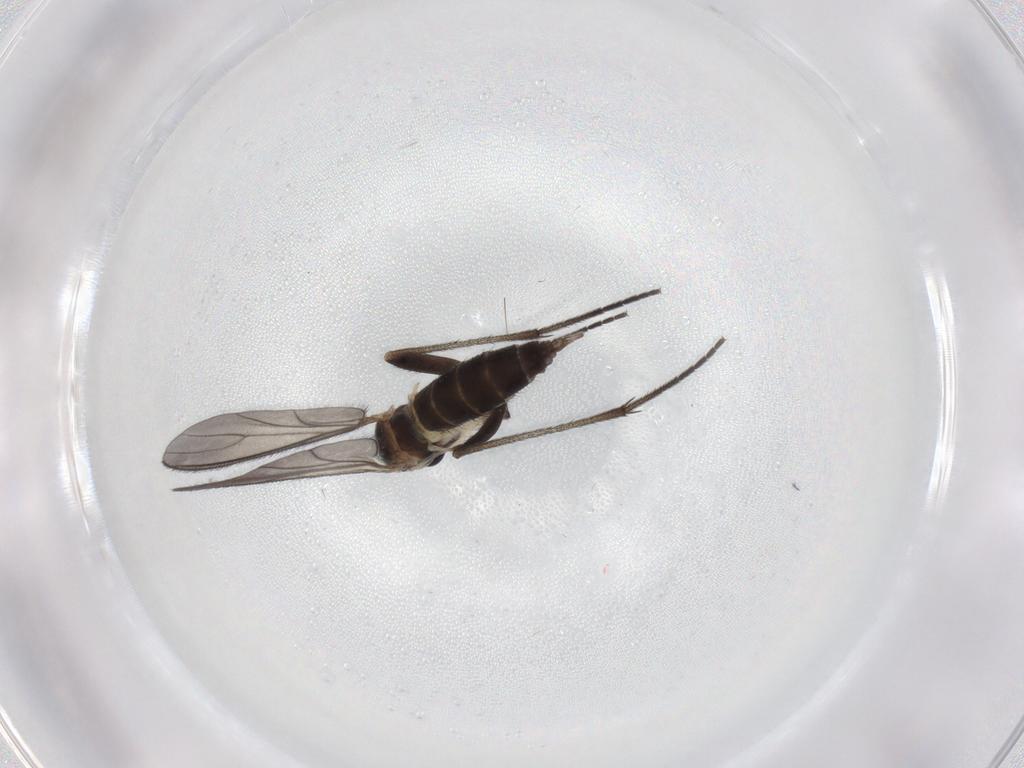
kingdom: Animalia
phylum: Arthropoda
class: Insecta
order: Diptera
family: Sciaridae
